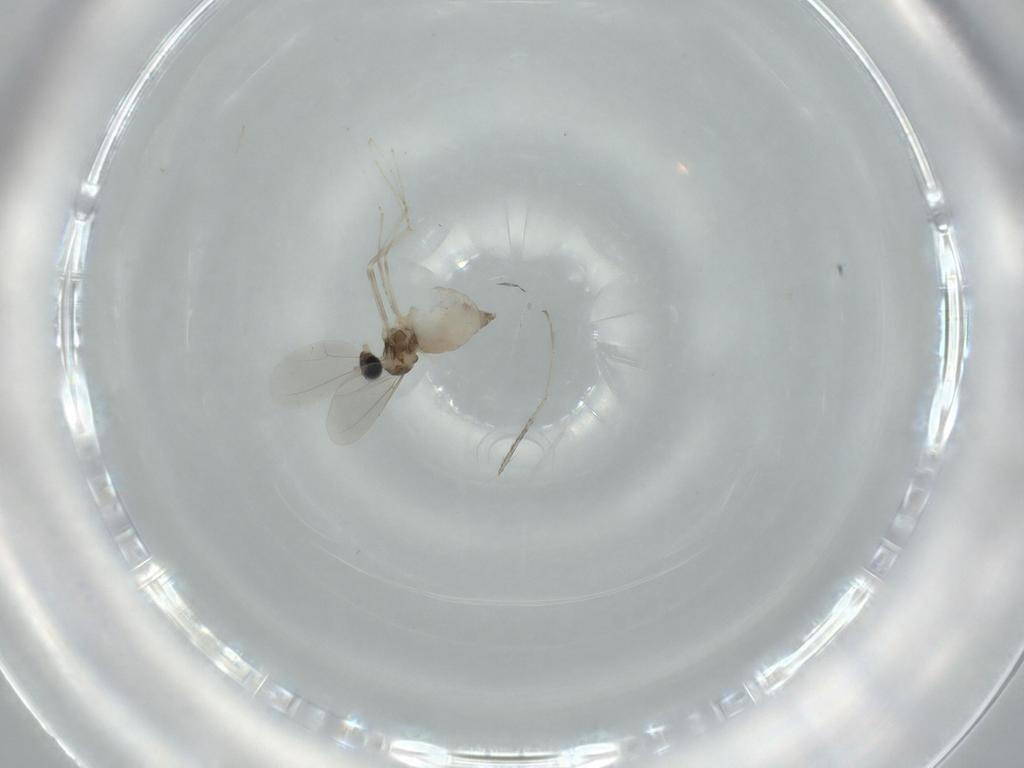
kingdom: Animalia
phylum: Arthropoda
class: Insecta
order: Diptera
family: Cecidomyiidae
